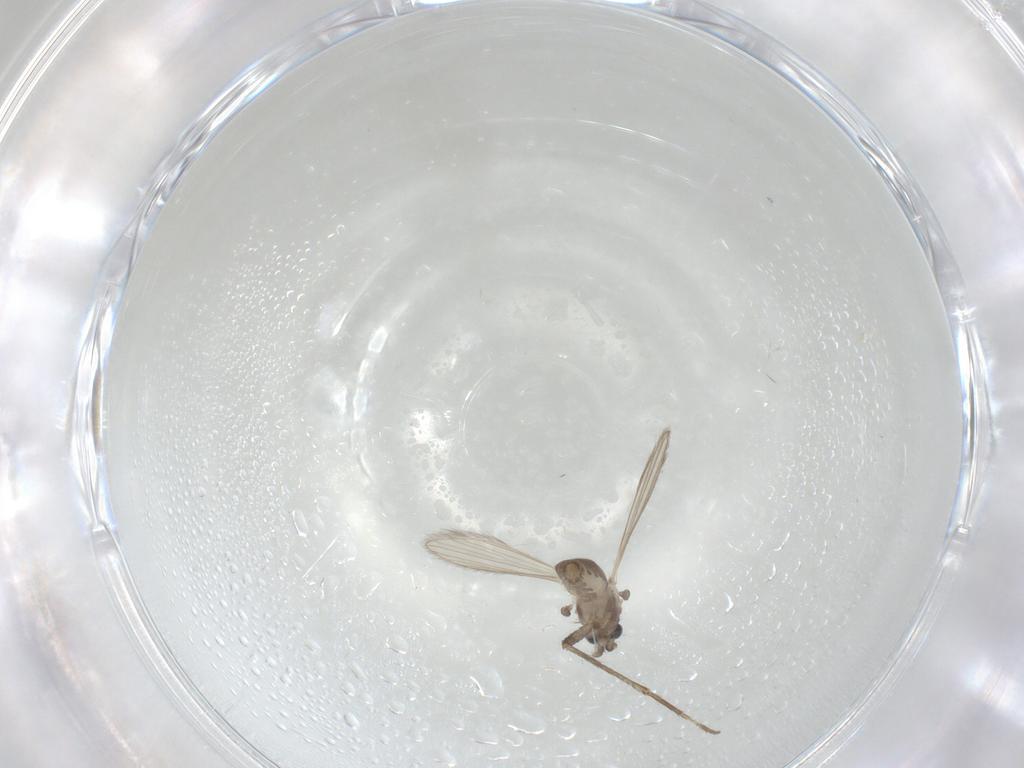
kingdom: Animalia
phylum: Arthropoda
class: Insecta
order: Diptera
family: Psychodidae
